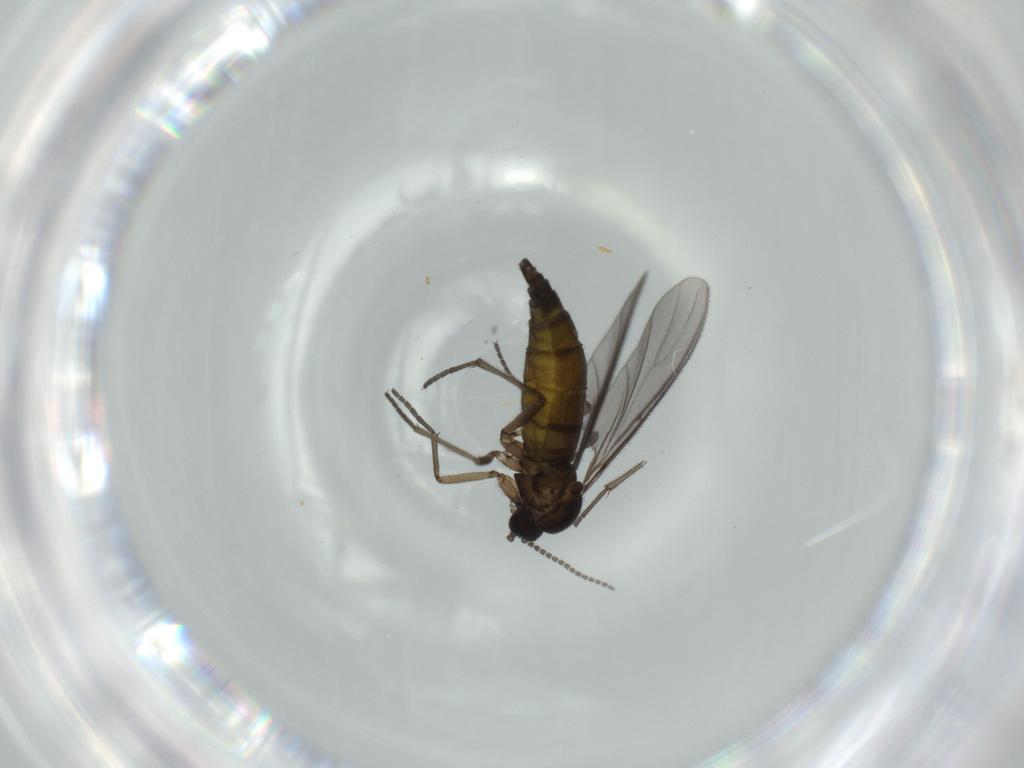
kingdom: Animalia
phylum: Arthropoda
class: Insecta
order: Diptera
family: Sciaridae
